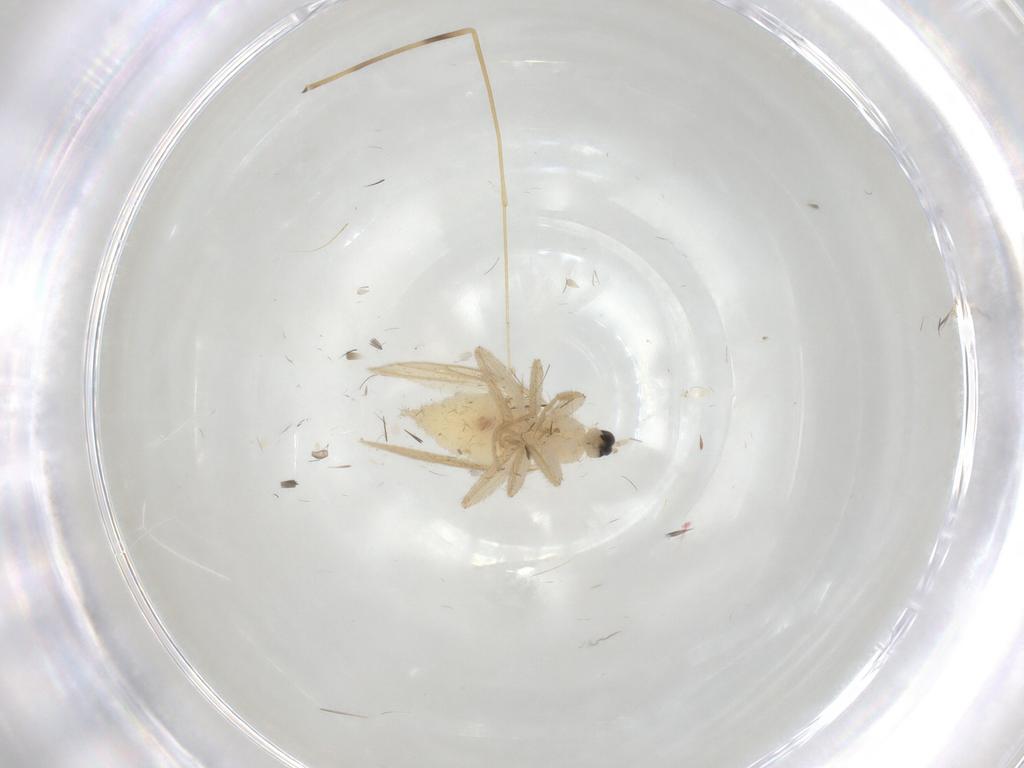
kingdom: Animalia
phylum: Arthropoda
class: Insecta
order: Diptera
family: Hybotidae
